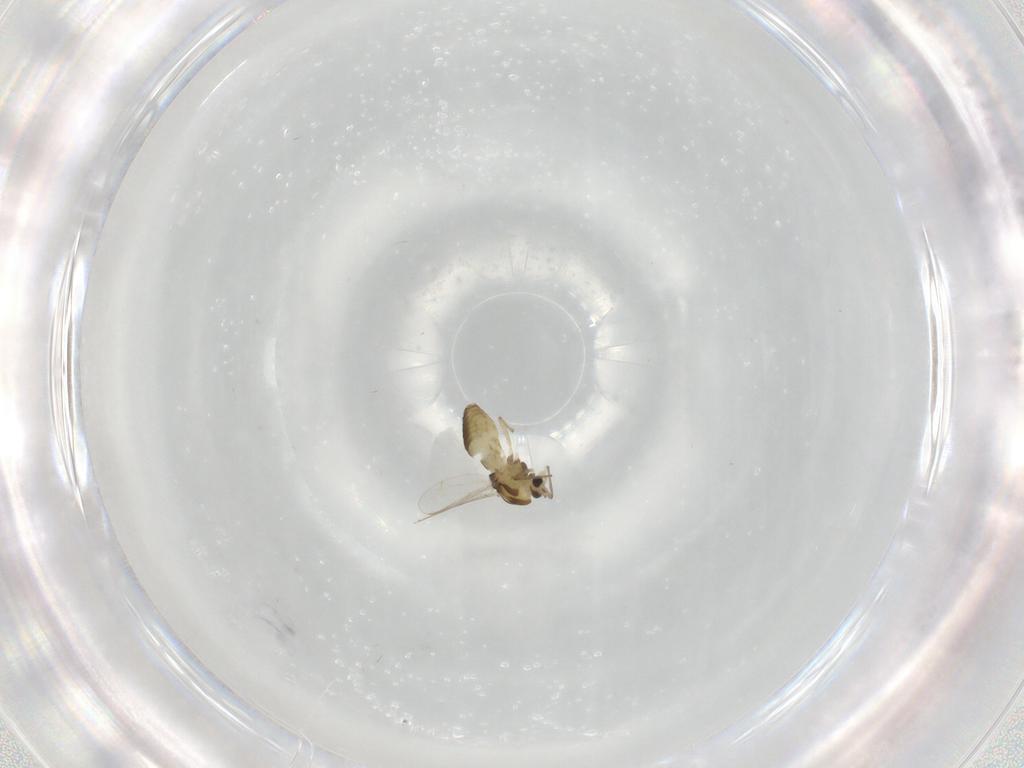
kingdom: Animalia
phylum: Arthropoda
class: Insecta
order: Diptera
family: Chironomidae
